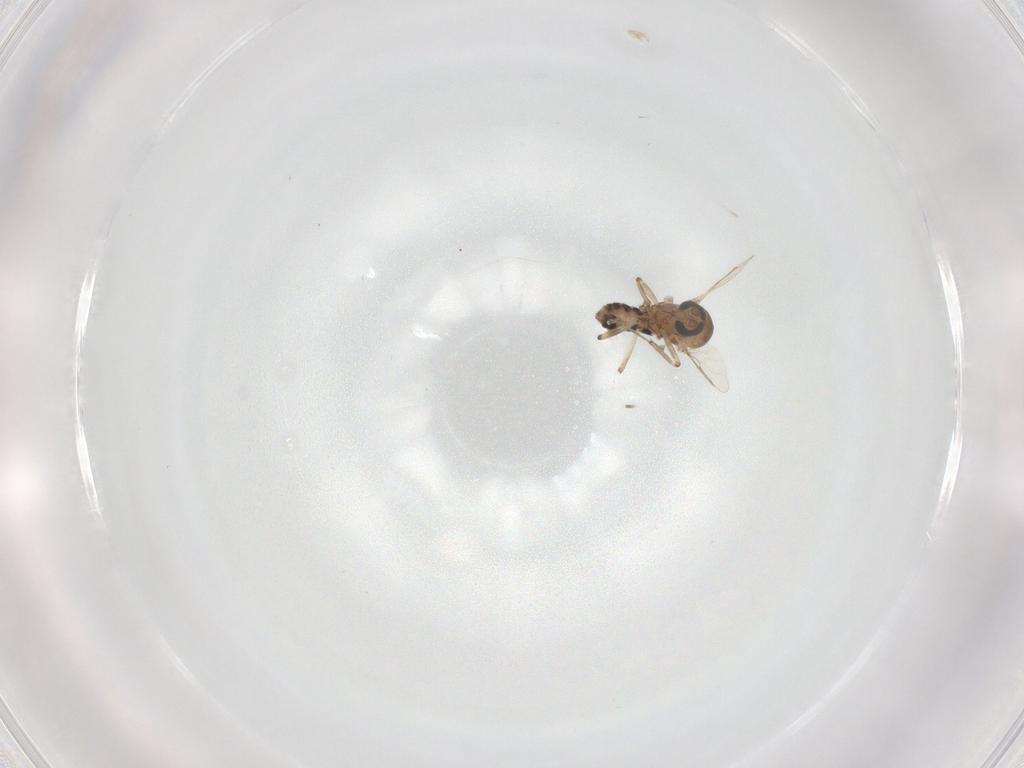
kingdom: Animalia
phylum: Arthropoda
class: Insecta
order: Diptera
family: Ceratopogonidae
